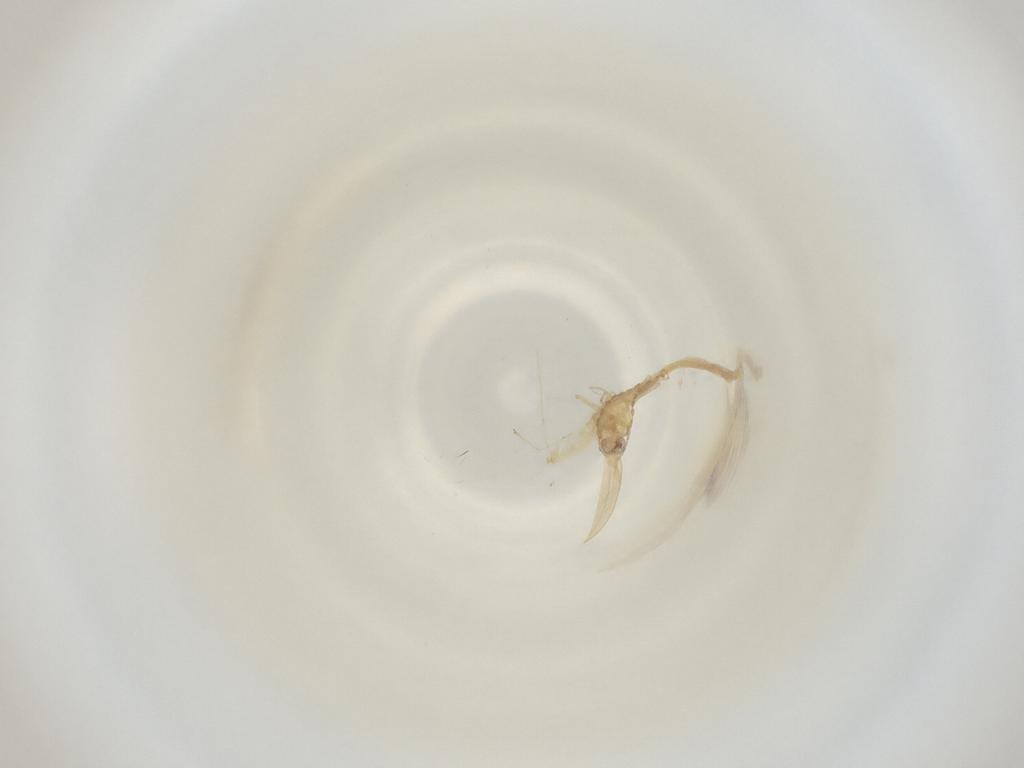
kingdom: Animalia
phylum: Arthropoda
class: Insecta
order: Diptera
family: Cecidomyiidae
